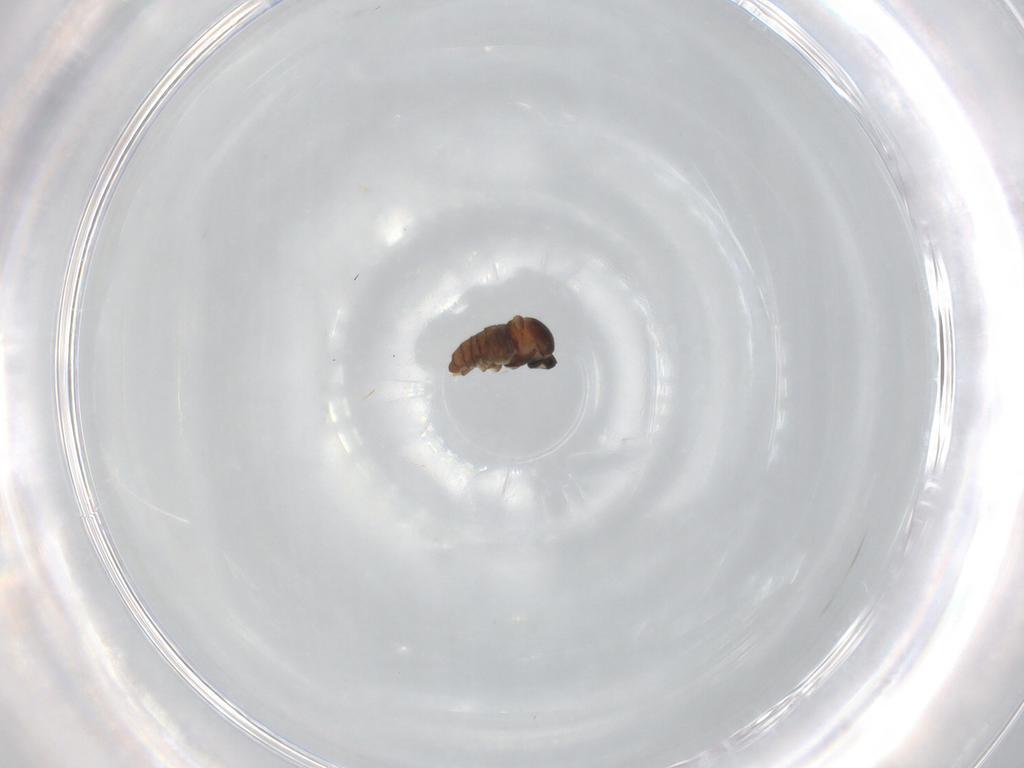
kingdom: Animalia
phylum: Arthropoda
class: Insecta
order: Diptera
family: Cecidomyiidae
